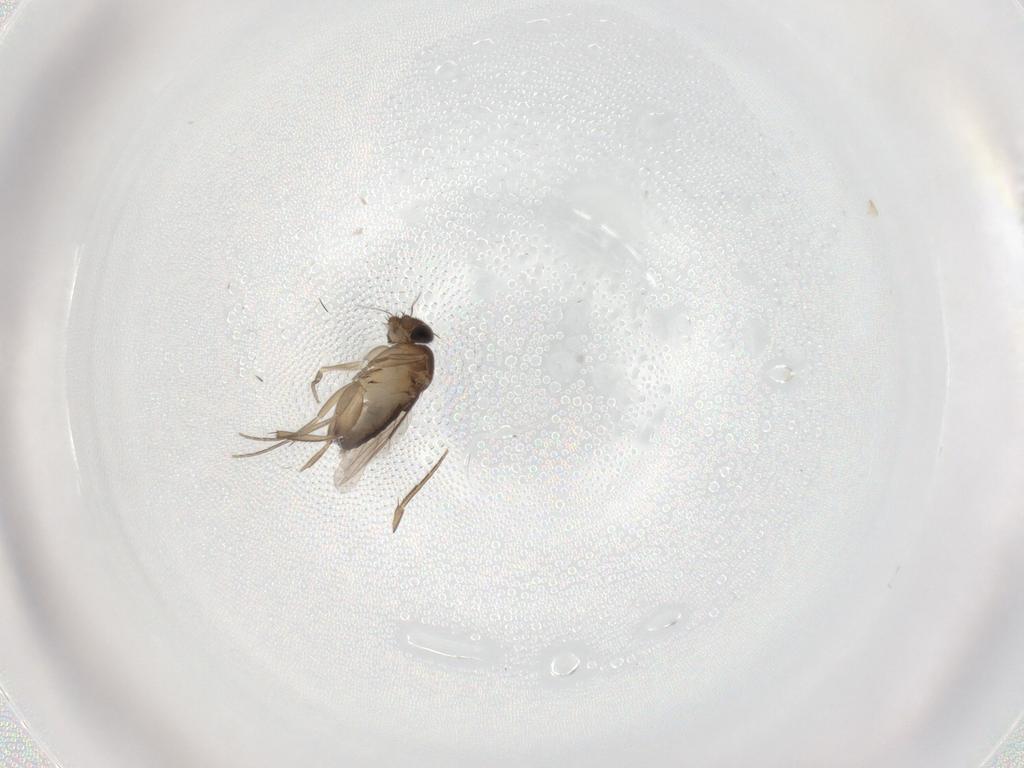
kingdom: Animalia
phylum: Arthropoda
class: Insecta
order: Diptera
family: Phoridae
